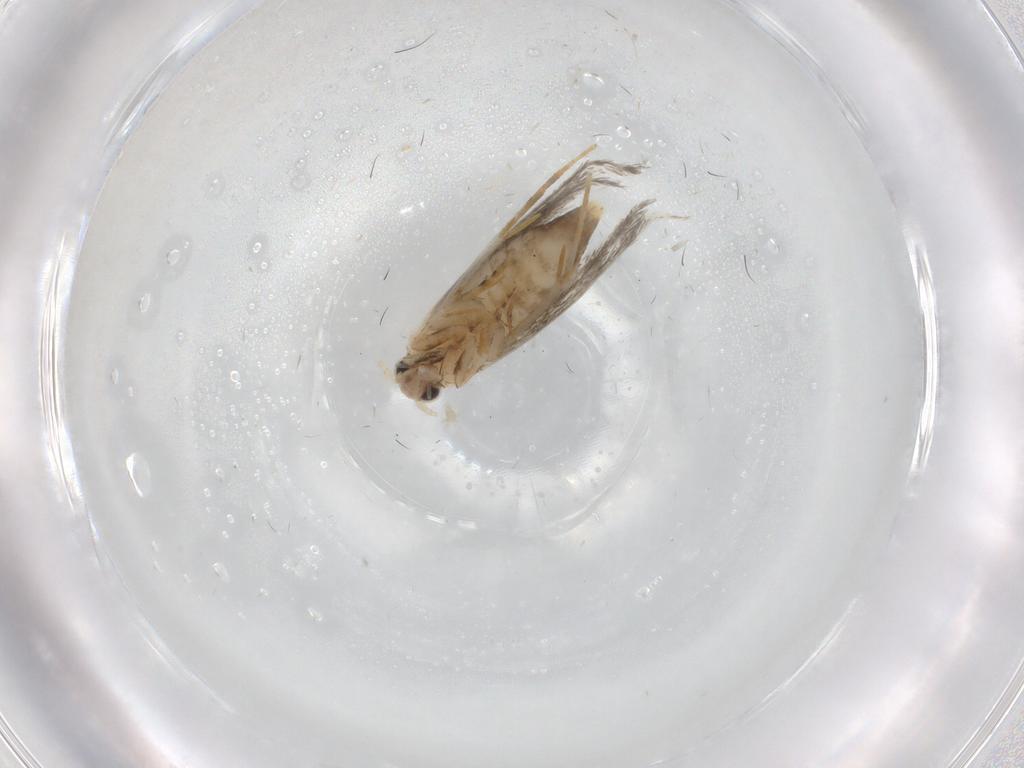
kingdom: Animalia
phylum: Arthropoda
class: Insecta
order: Lepidoptera
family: Tineidae
